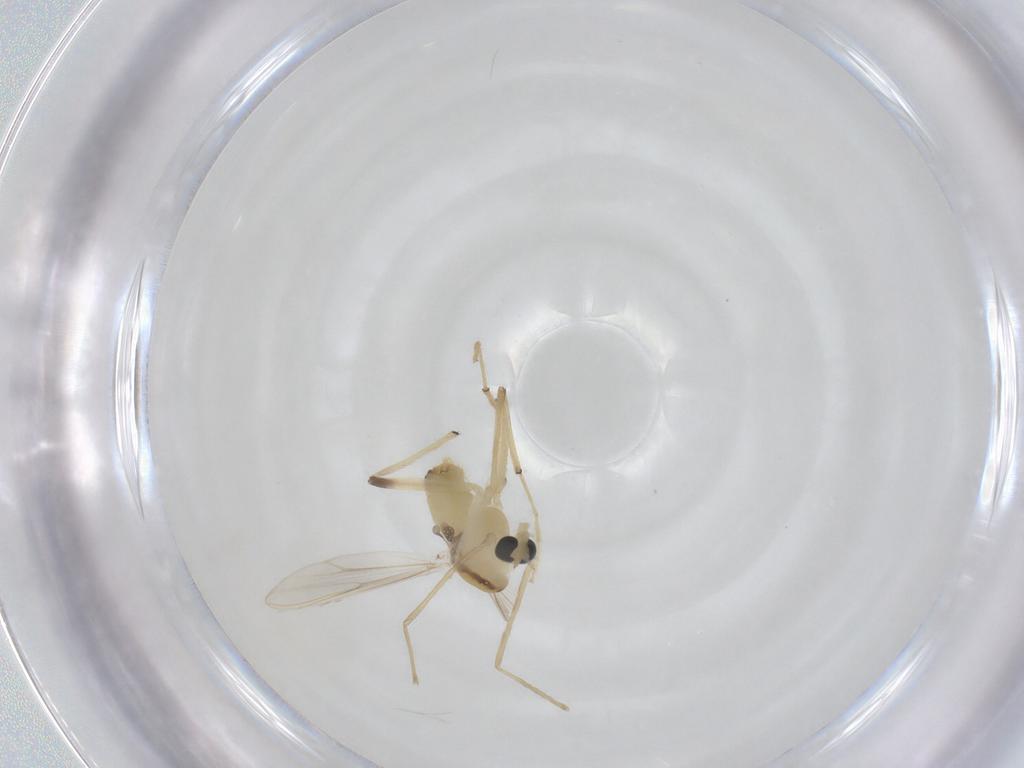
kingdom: Animalia
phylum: Arthropoda
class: Insecta
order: Diptera
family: Chironomidae
